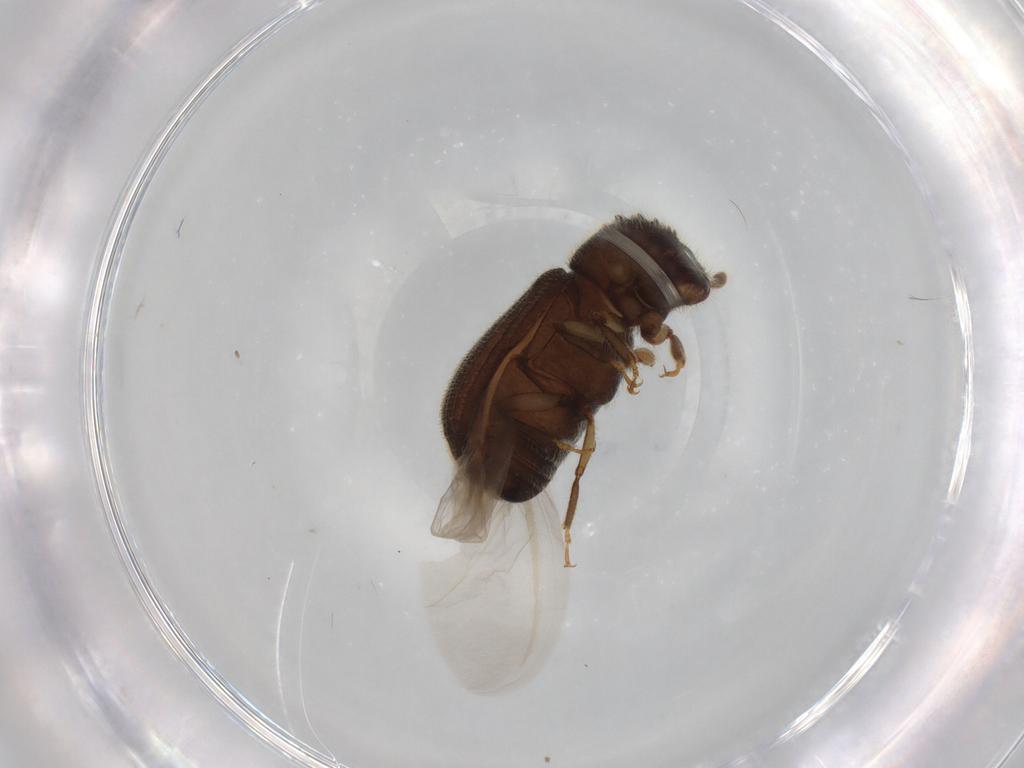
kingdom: Animalia
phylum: Arthropoda
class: Insecta
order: Coleoptera
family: Curculionidae
